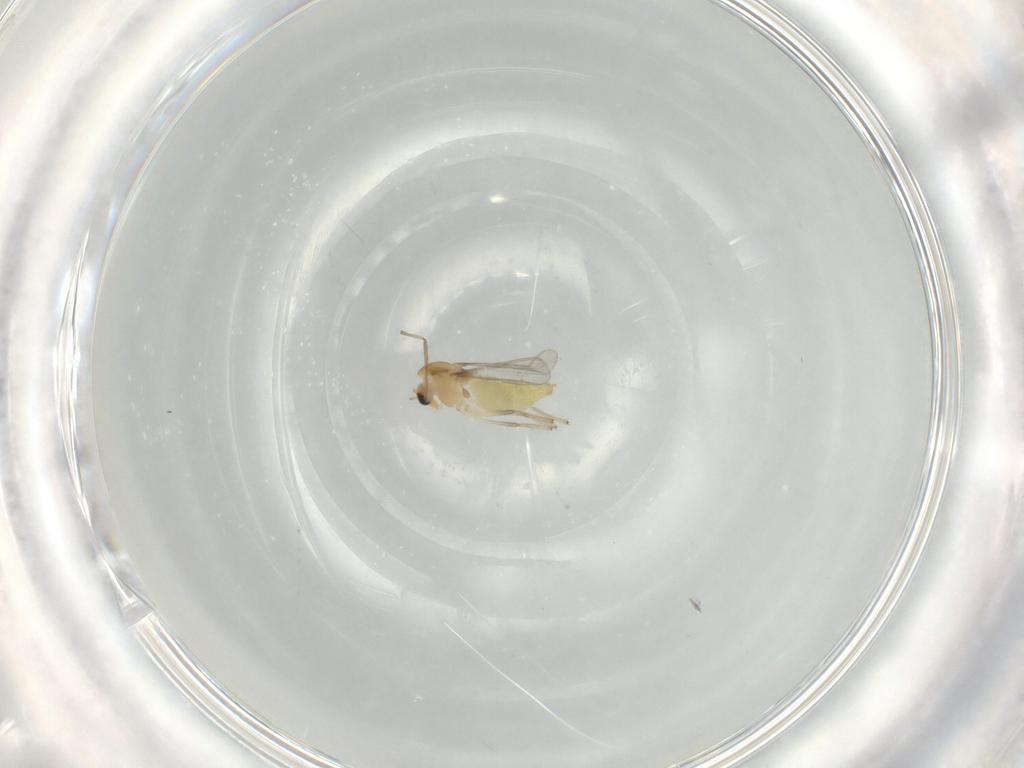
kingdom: Animalia
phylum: Arthropoda
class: Insecta
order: Diptera
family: Chironomidae
